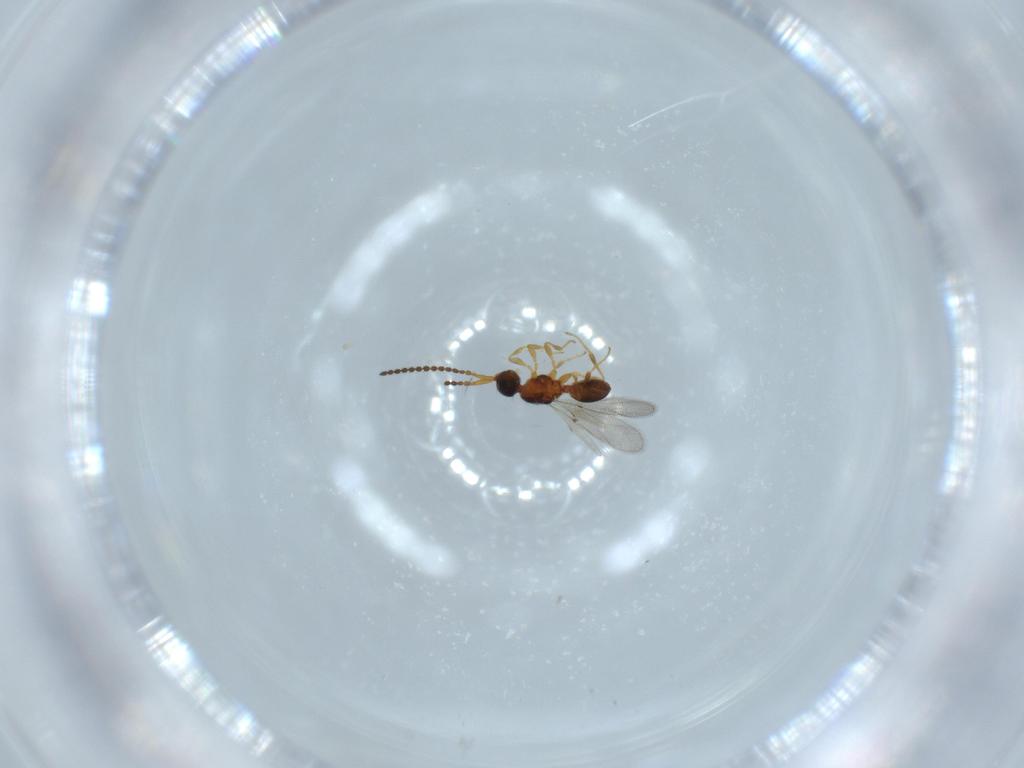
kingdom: Animalia
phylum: Arthropoda
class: Insecta
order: Hymenoptera
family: Diapriidae
